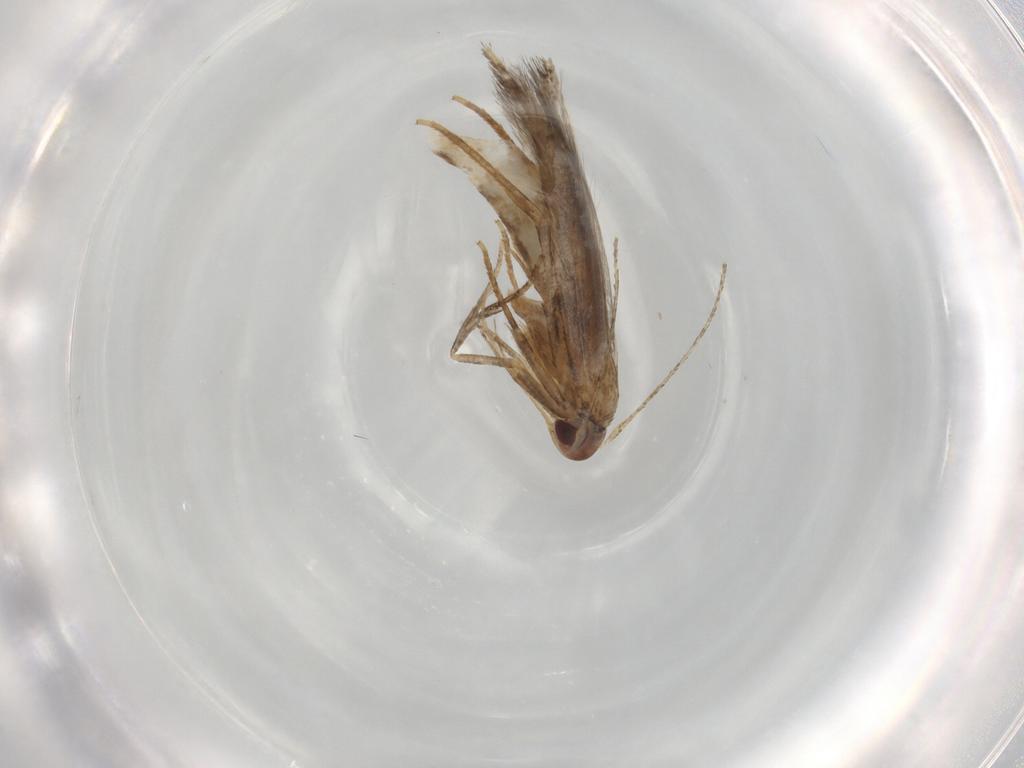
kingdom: Animalia
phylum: Arthropoda
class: Insecta
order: Lepidoptera
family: Cosmopterigidae
